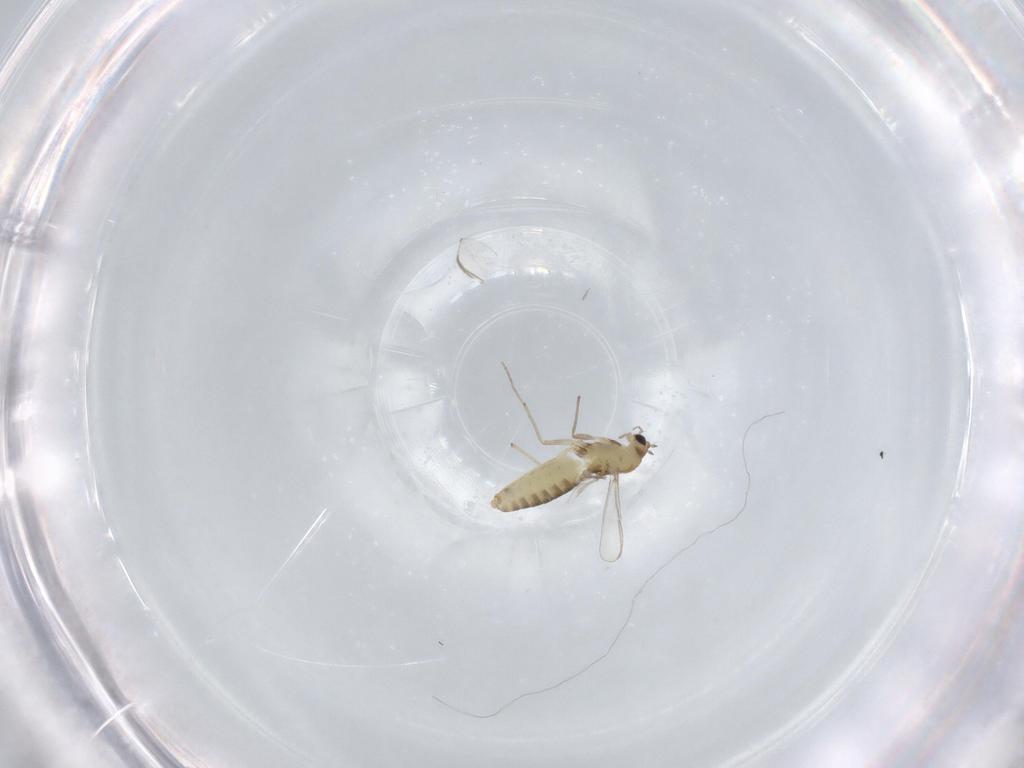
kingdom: Animalia
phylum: Arthropoda
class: Insecta
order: Diptera
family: Chironomidae
